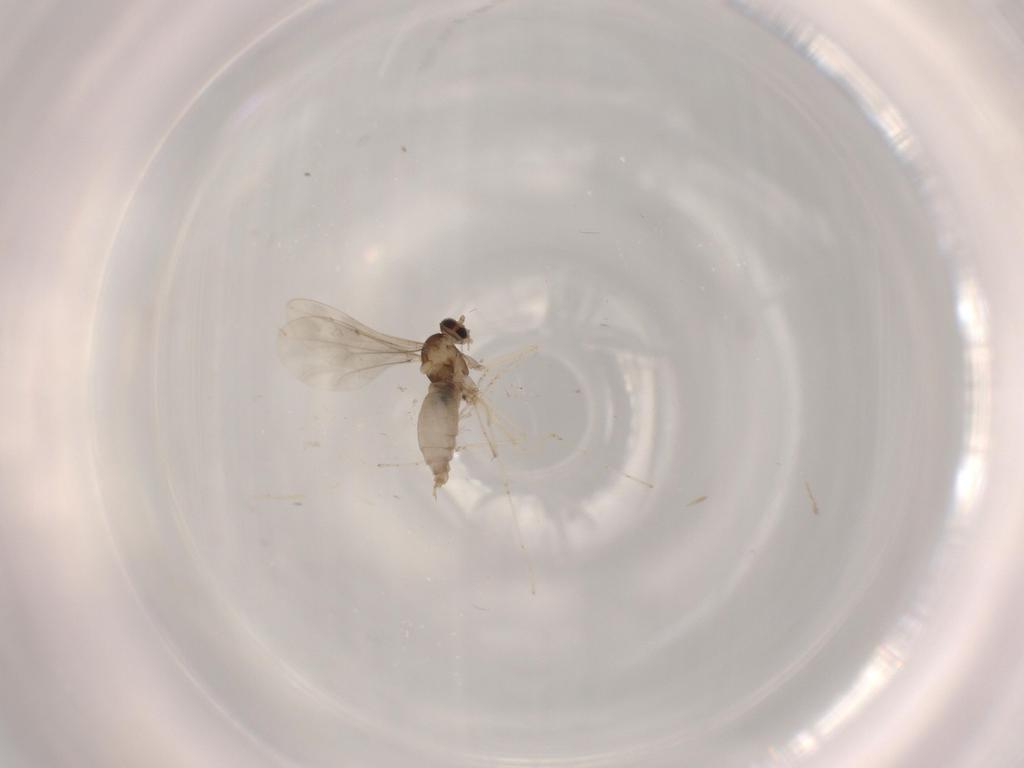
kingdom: Animalia
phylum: Arthropoda
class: Insecta
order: Diptera
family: Cecidomyiidae
